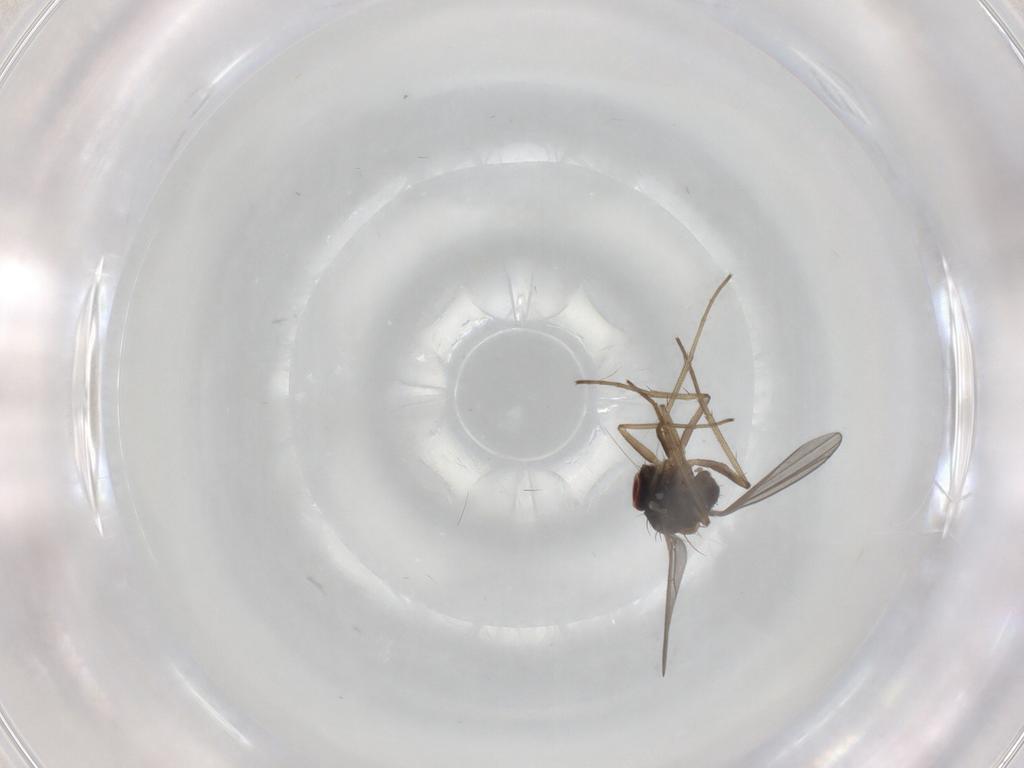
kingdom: Animalia
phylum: Arthropoda
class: Insecta
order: Diptera
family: Dolichopodidae
